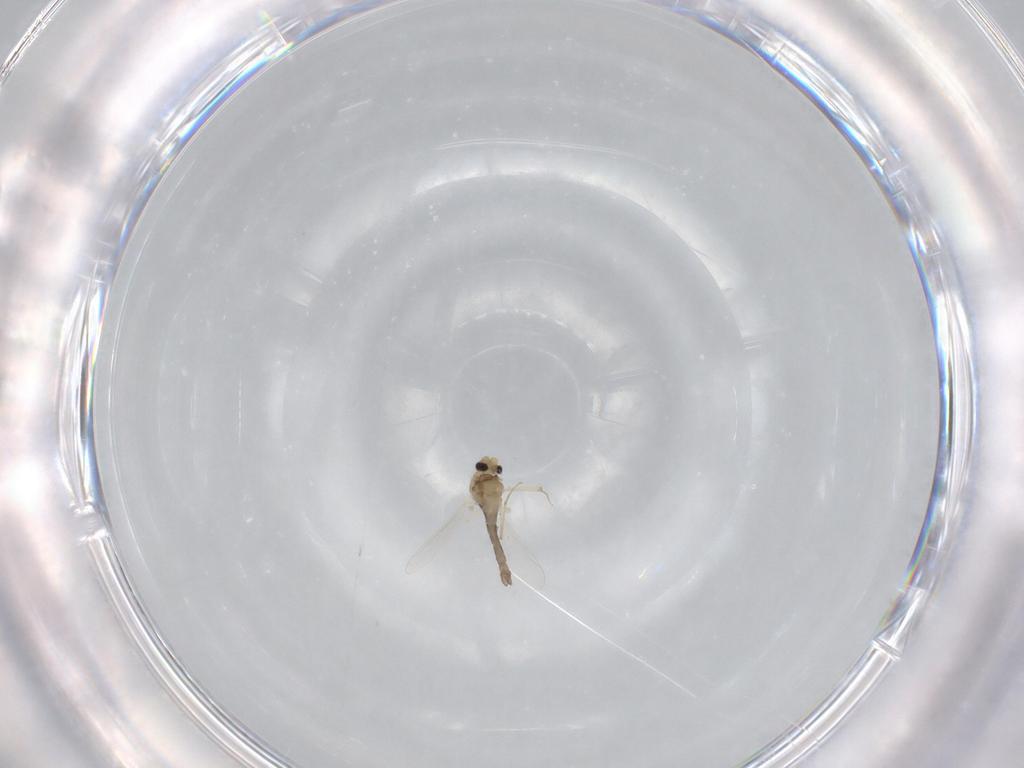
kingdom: Animalia
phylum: Arthropoda
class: Insecta
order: Diptera
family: Chironomidae
